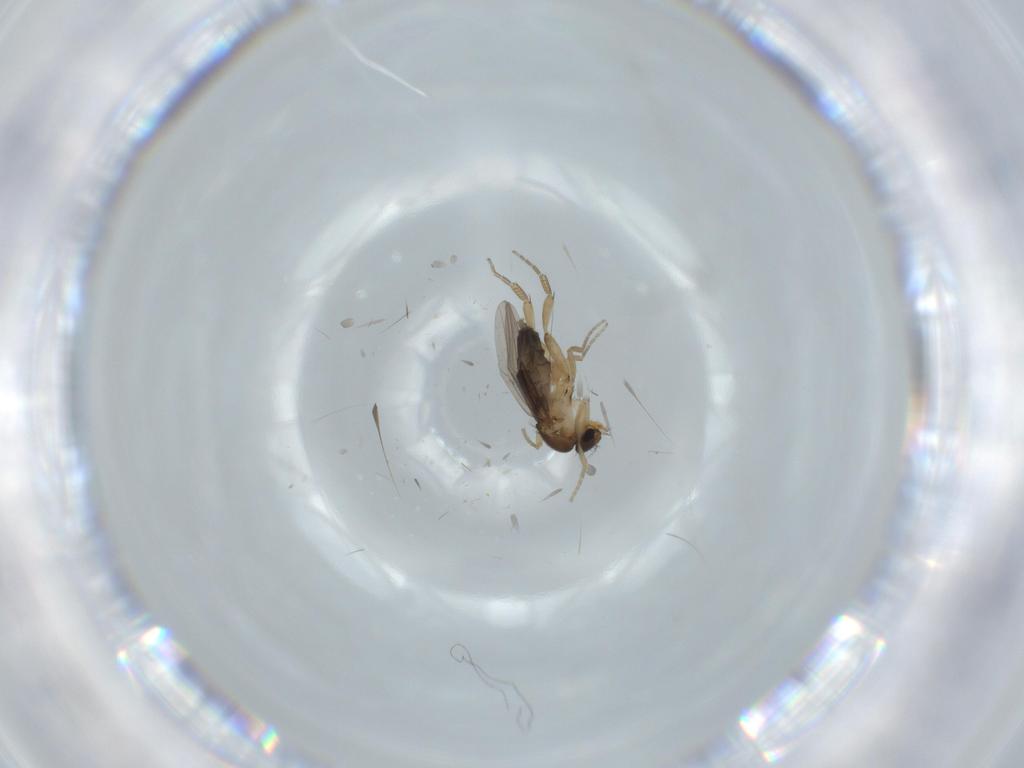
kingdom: Animalia
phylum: Arthropoda
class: Insecta
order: Diptera
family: Phoridae
